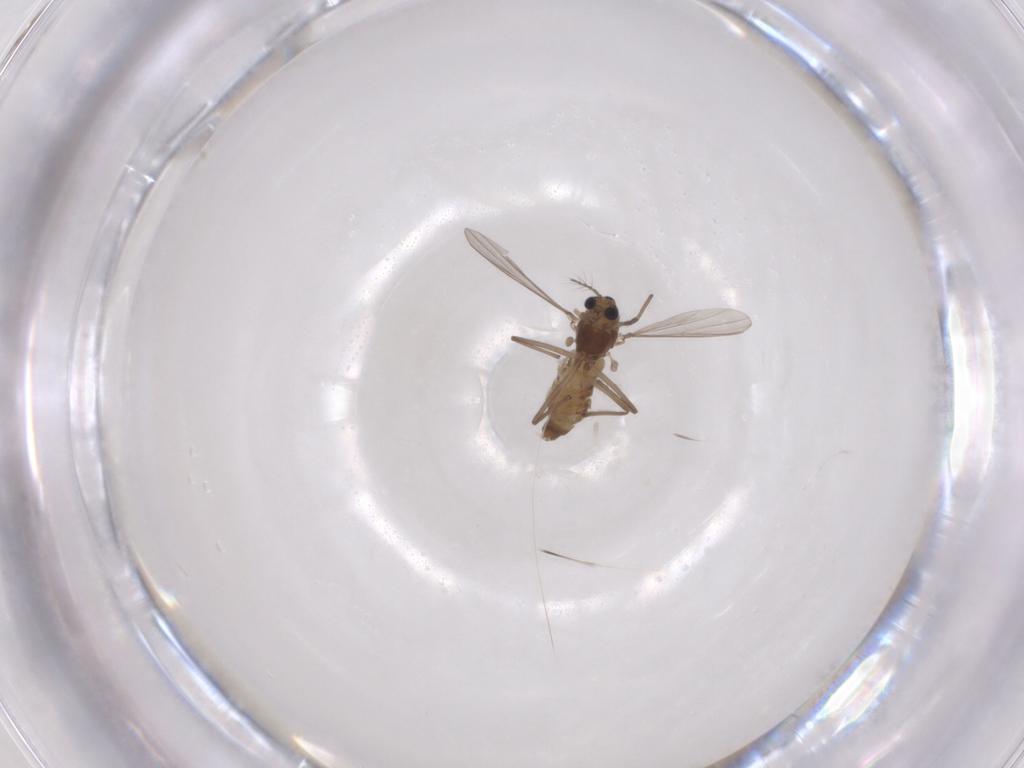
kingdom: Animalia
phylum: Arthropoda
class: Insecta
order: Diptera
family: Chironomidae
